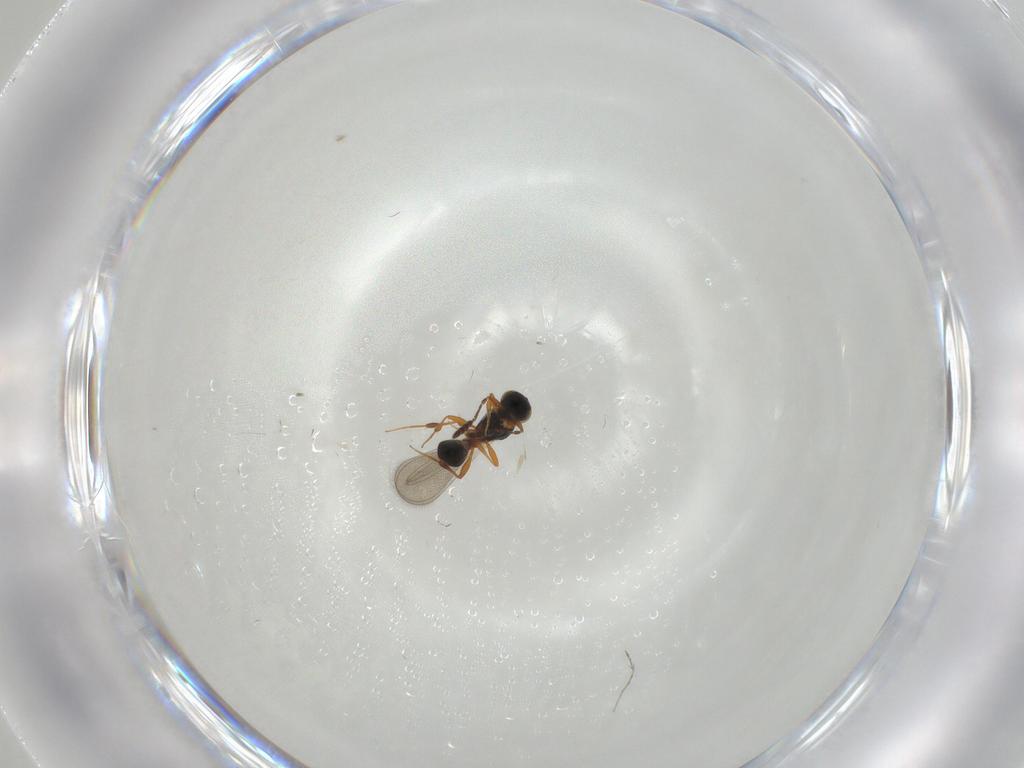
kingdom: Animalia
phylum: Arthropoda
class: Insecta
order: Hymenoptera
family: Platygastridae
